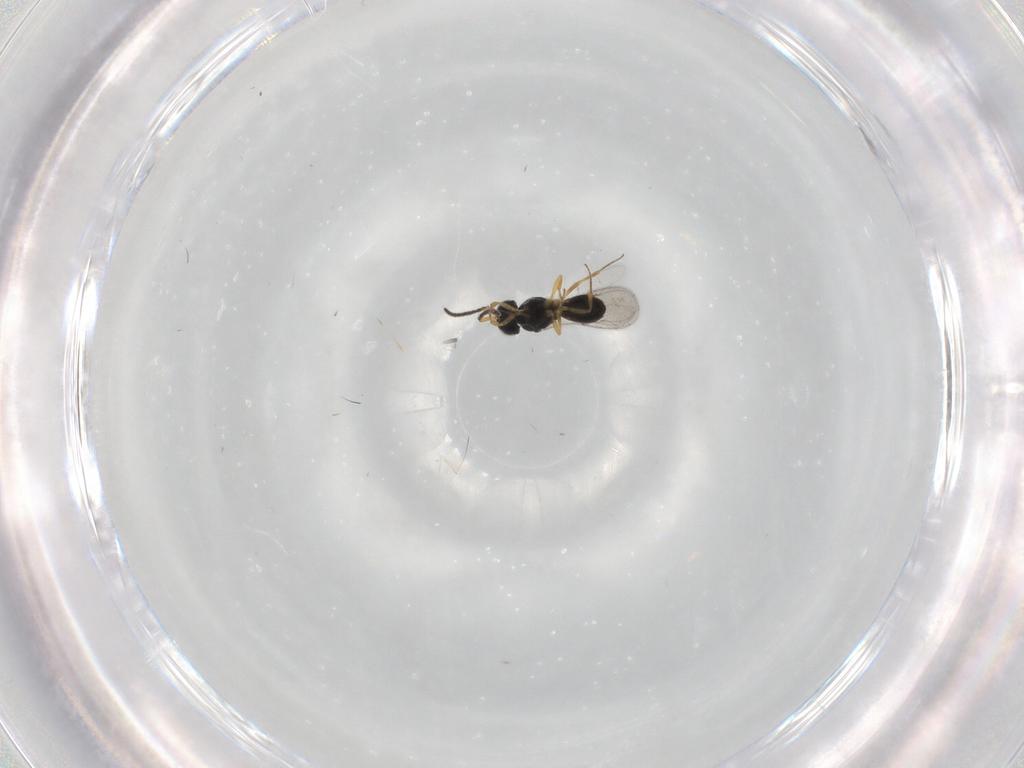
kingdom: Animalia
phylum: Arthropoda
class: Insecta
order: Hymenoptera
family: Scelionidae
